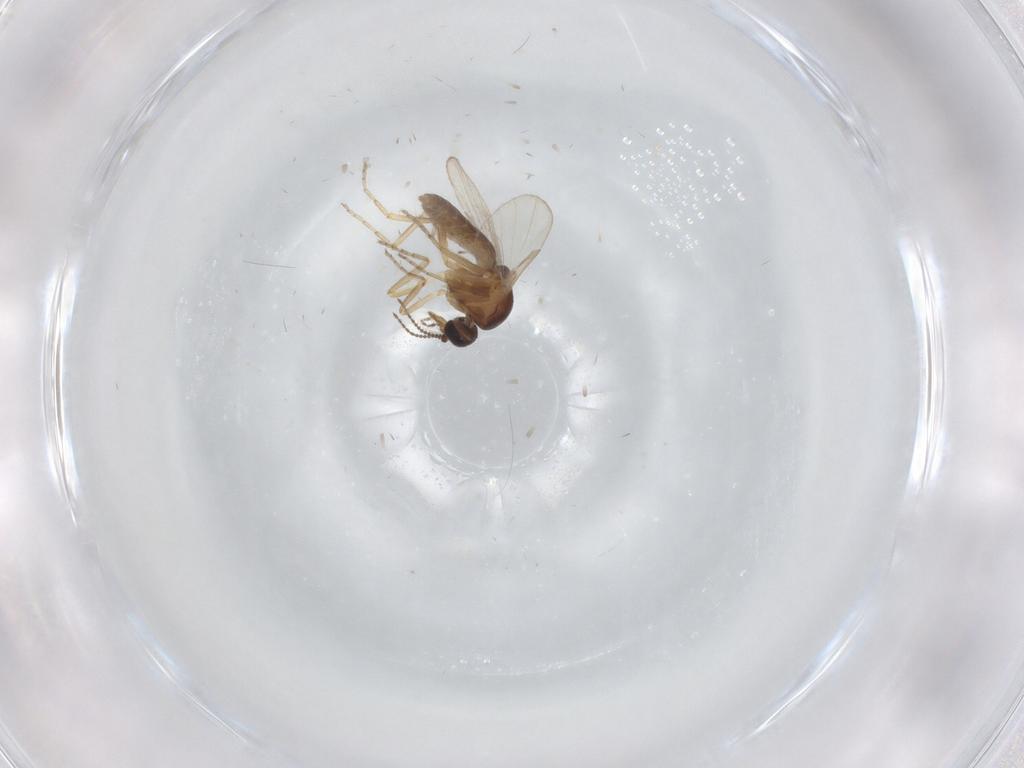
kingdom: Animalia
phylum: Arthropoda
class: Insecta
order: Diptera
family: Ceratopogonidae
